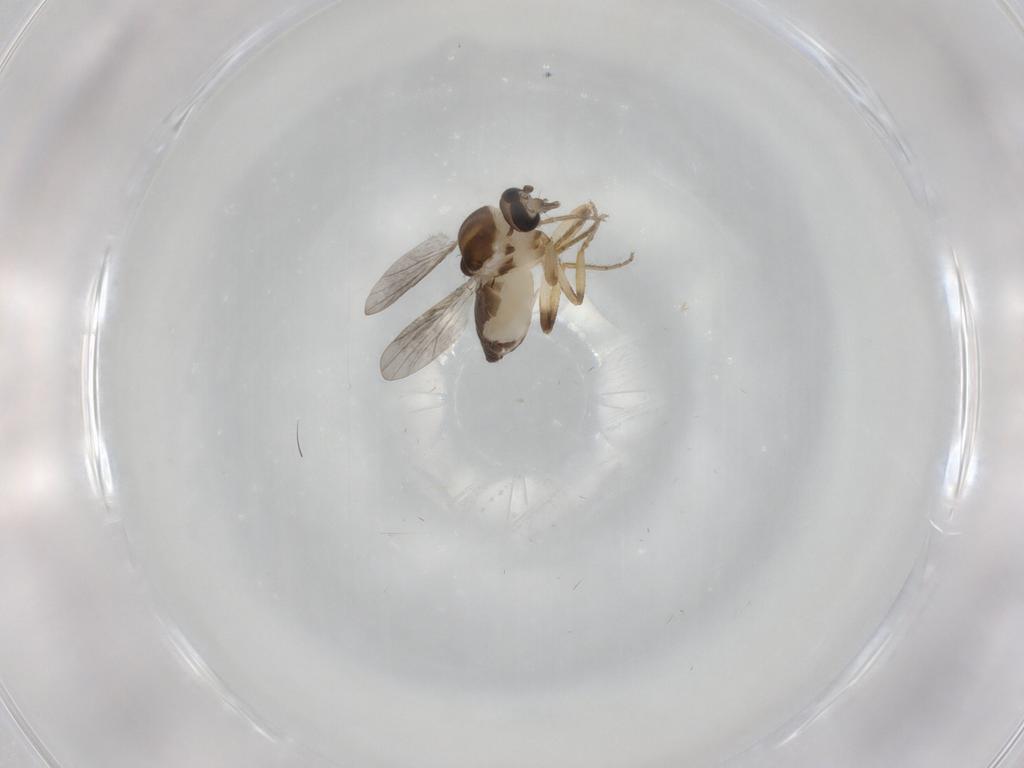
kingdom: Animalia
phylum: Arthropoda
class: Insecta
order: Diptera
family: Ceratopogonidae
